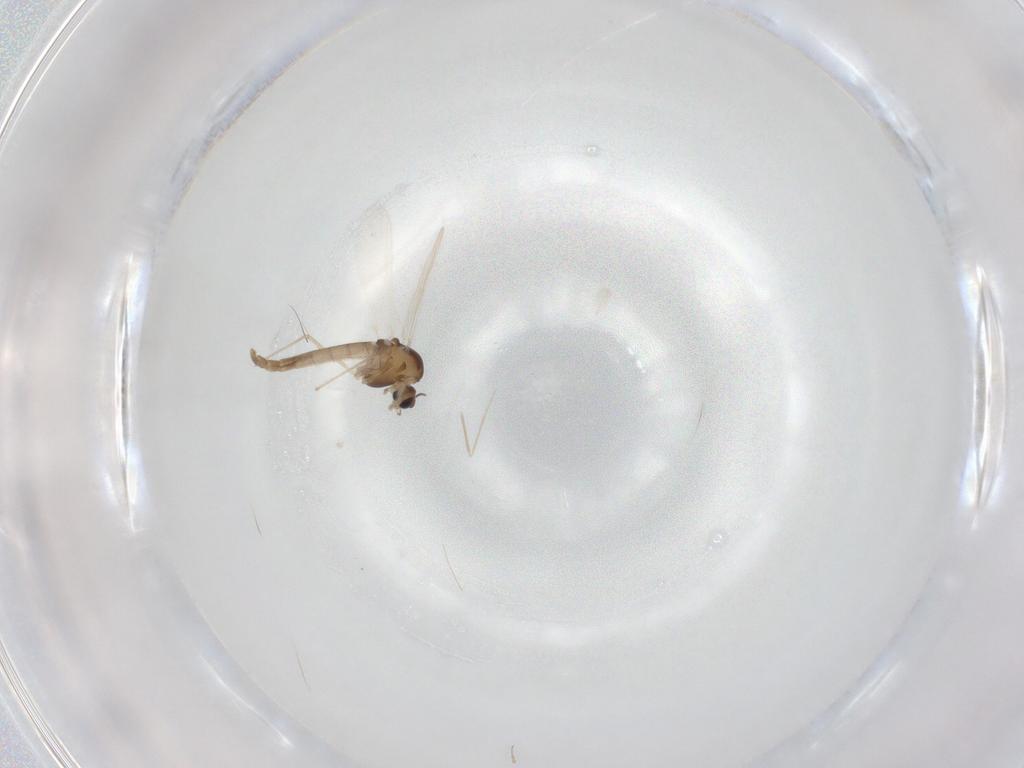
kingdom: Animalia
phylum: Arthropoda
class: Insecta
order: Diptera
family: Chironomidae
